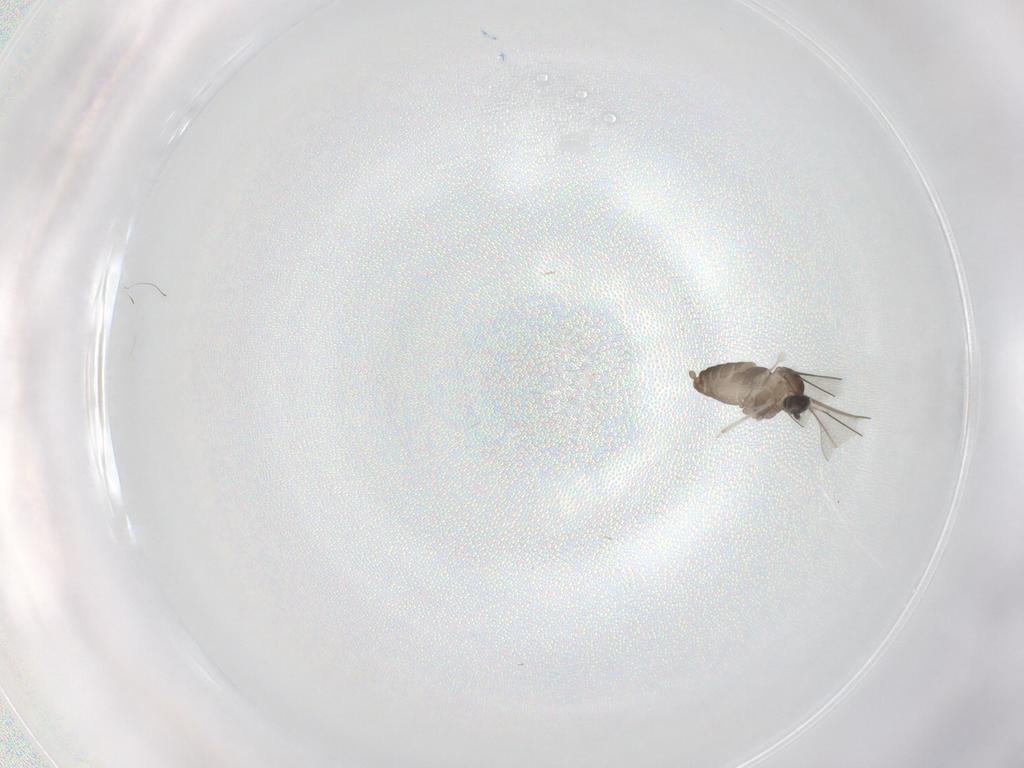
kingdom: Animalia
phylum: Arthropoda
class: Insecta
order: Diptera
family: Cecidomyiidae
